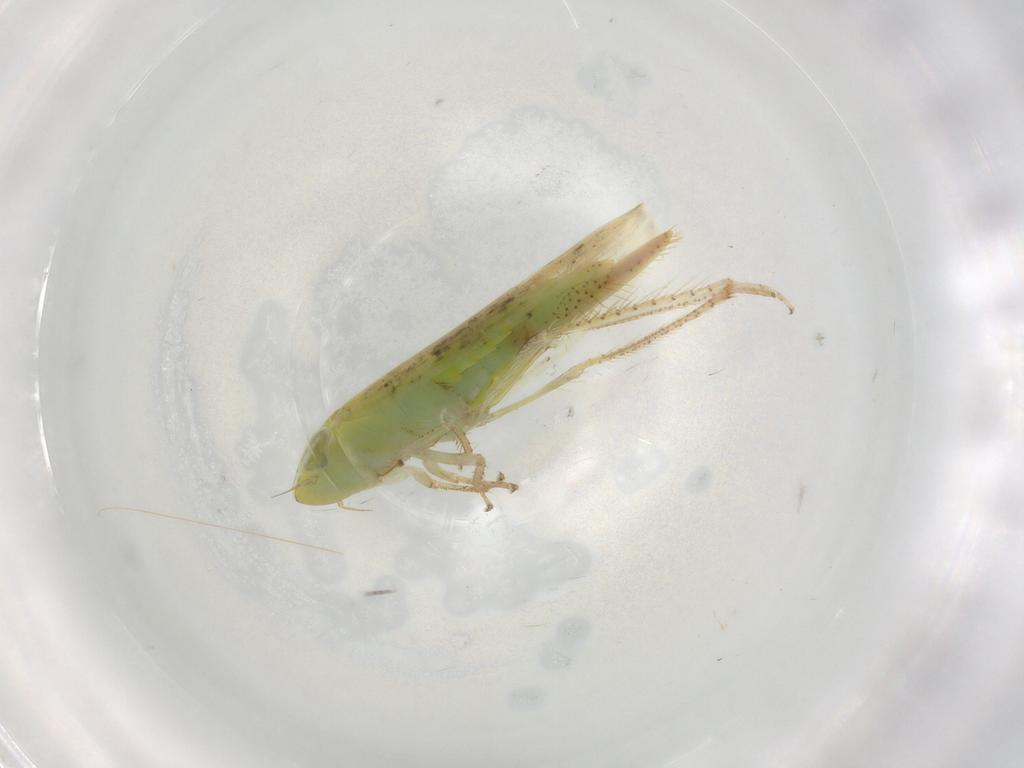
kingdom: Animalia
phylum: Arthropoda
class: Insecta
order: Hemiptera
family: Cicadellidae
